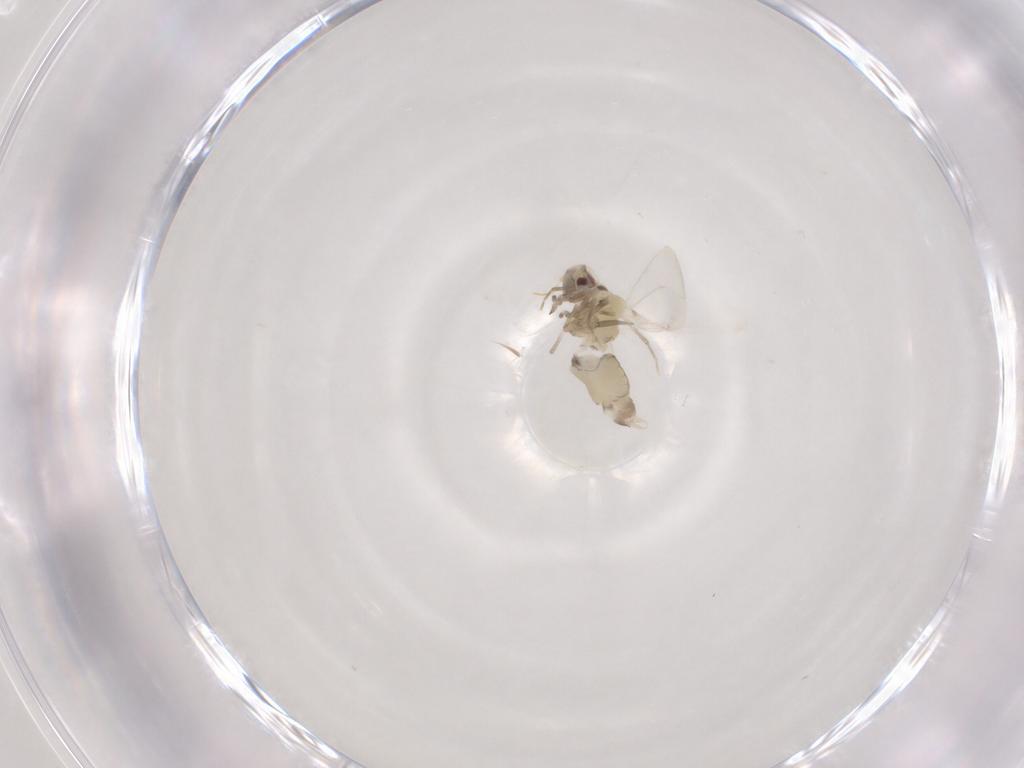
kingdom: Animalia
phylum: Arthropoda
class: Insecta
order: Hemiptera
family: Aleyrodidae
